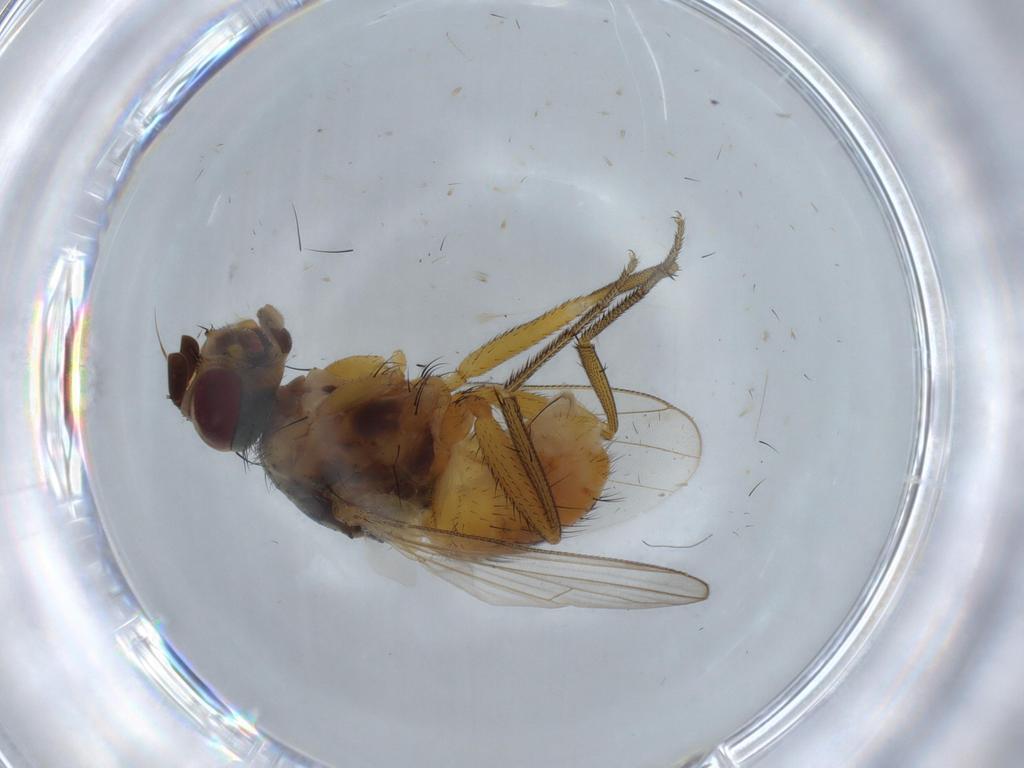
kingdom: Animalia
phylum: Arthropoda
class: Insecta
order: Diptera
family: Muscidae
